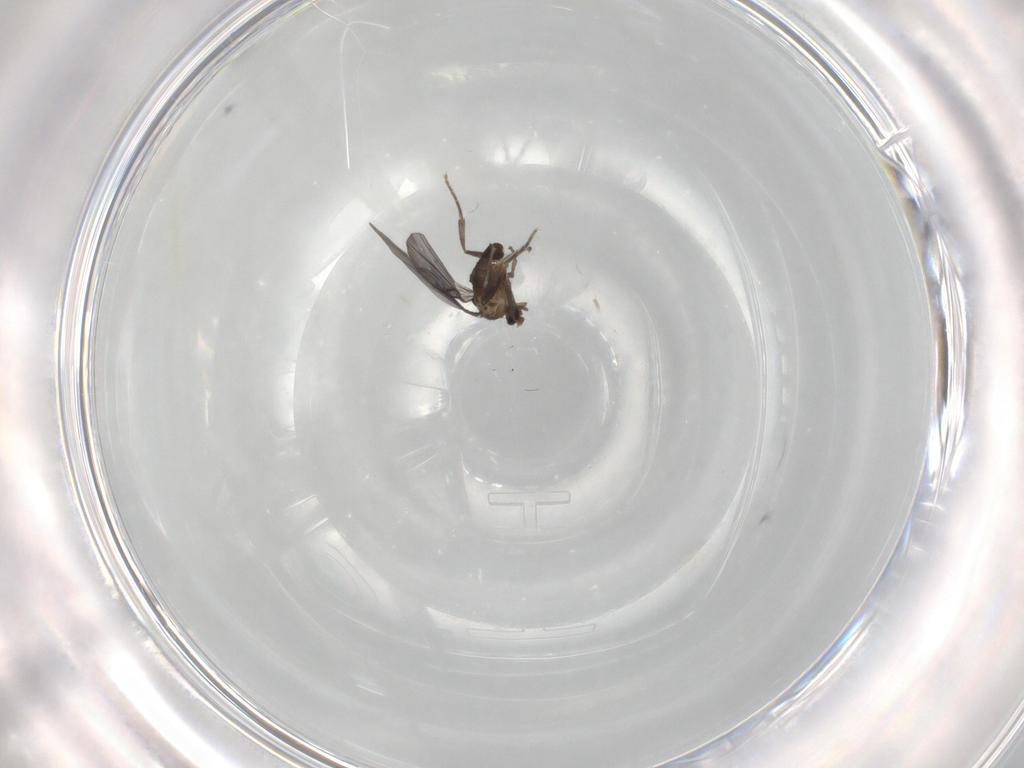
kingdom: Animalia
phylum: Arthropoda
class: Insecta
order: Diptera
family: Phoridae
